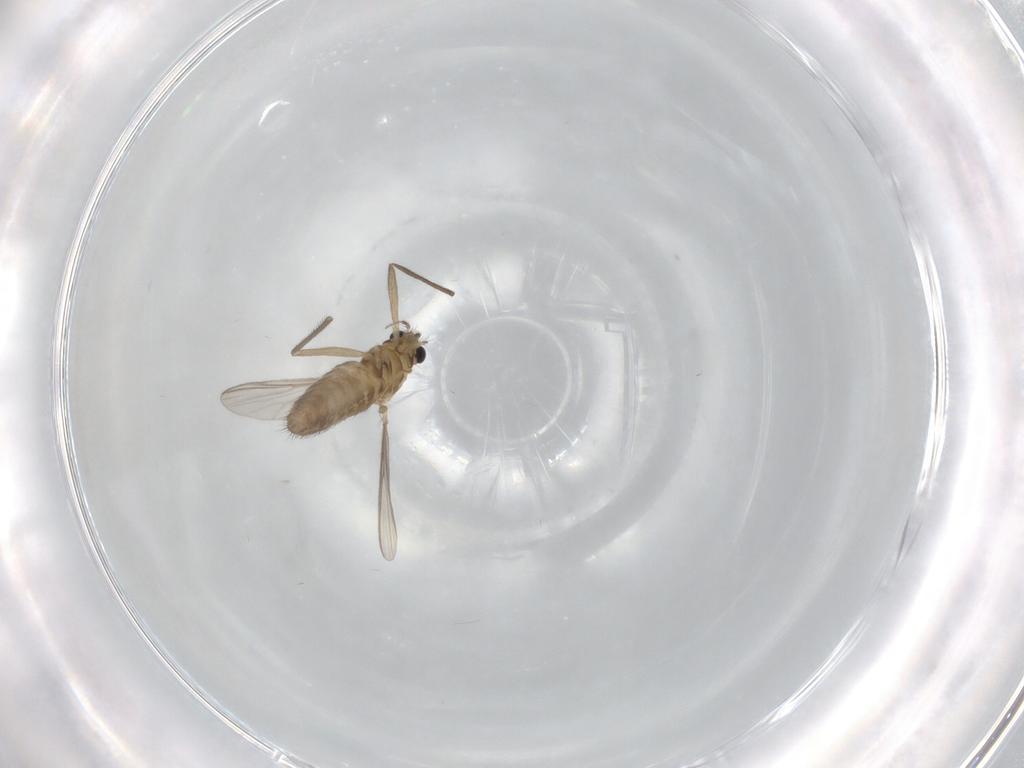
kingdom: Animalia
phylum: Arthropoda
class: Insecta
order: Diptera
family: Chironomidae
